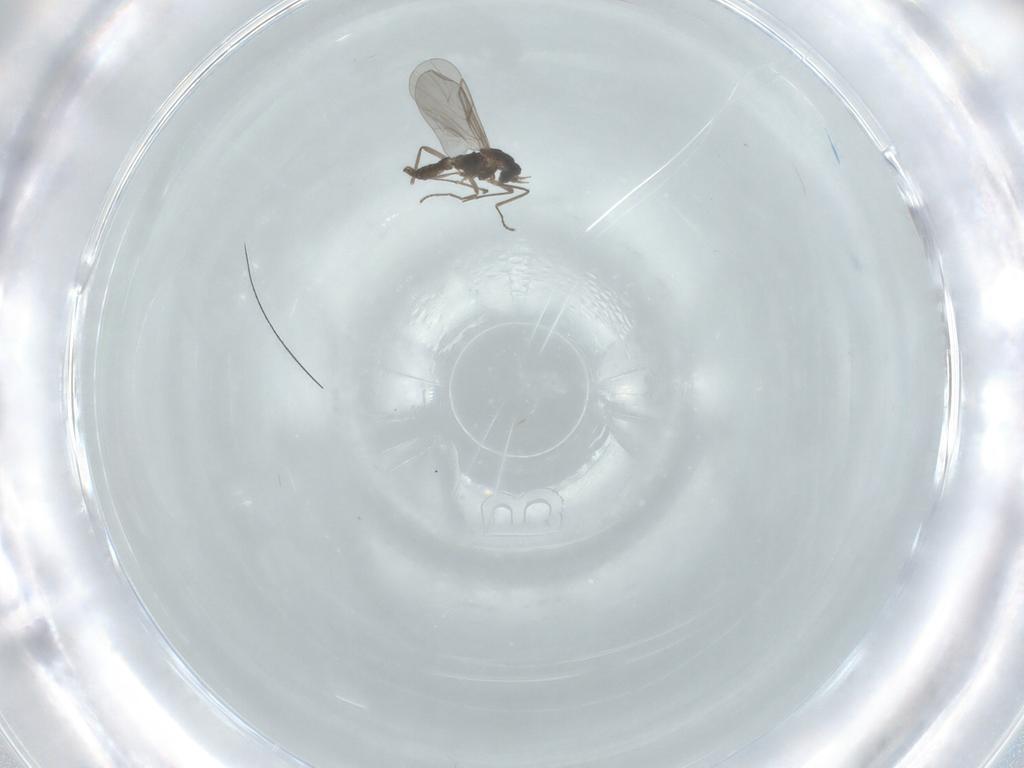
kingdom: Animalia
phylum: Arthropoda
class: Insecta
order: Diptera
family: Cecidomyiidae
